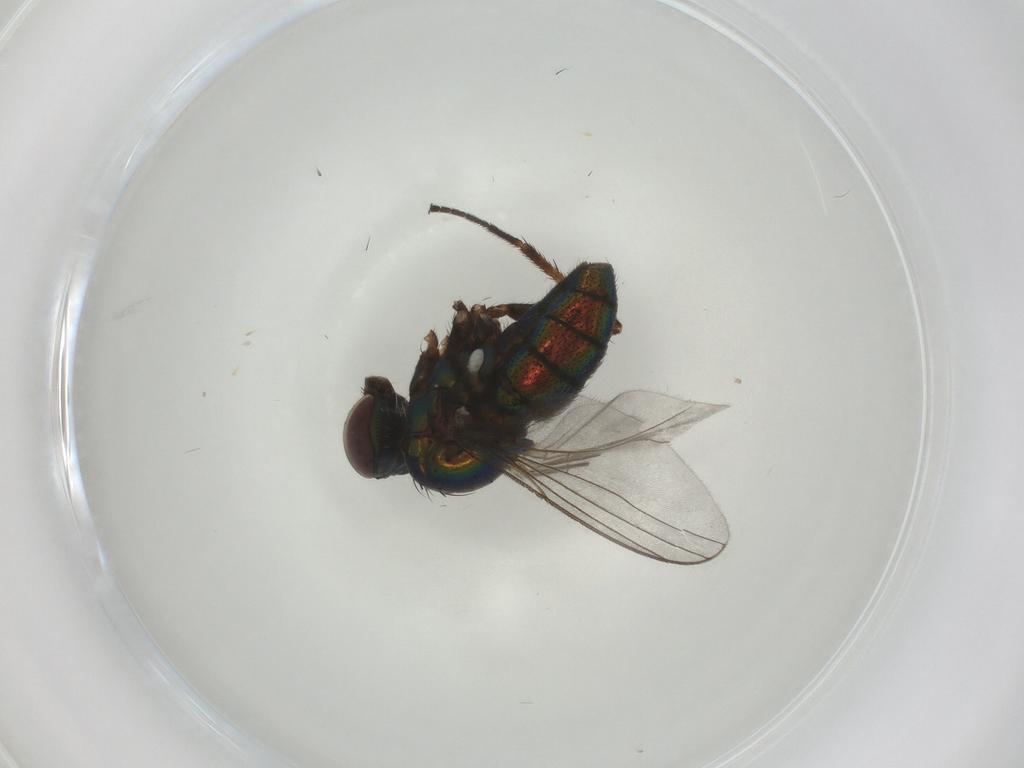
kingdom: Animalia
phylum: Arthropoda
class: Insecta
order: Diptera
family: Dolichopodidae
